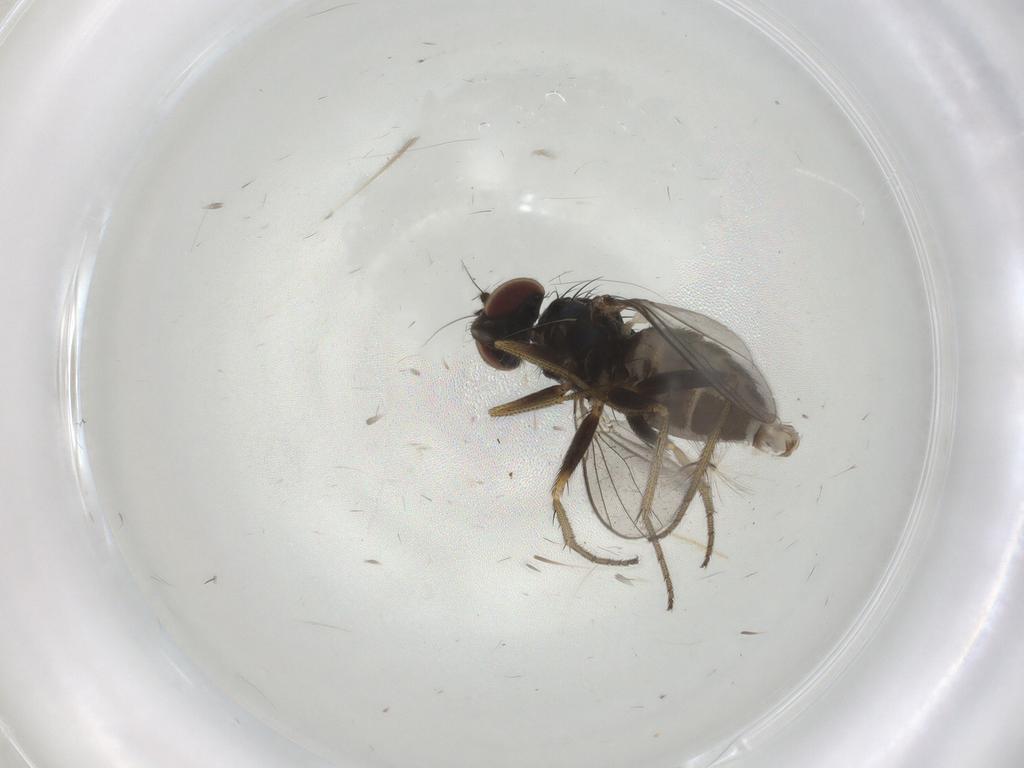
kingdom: Animalia
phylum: Arthropoda
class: Insecta
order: Diptera
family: Dolichopodidae
